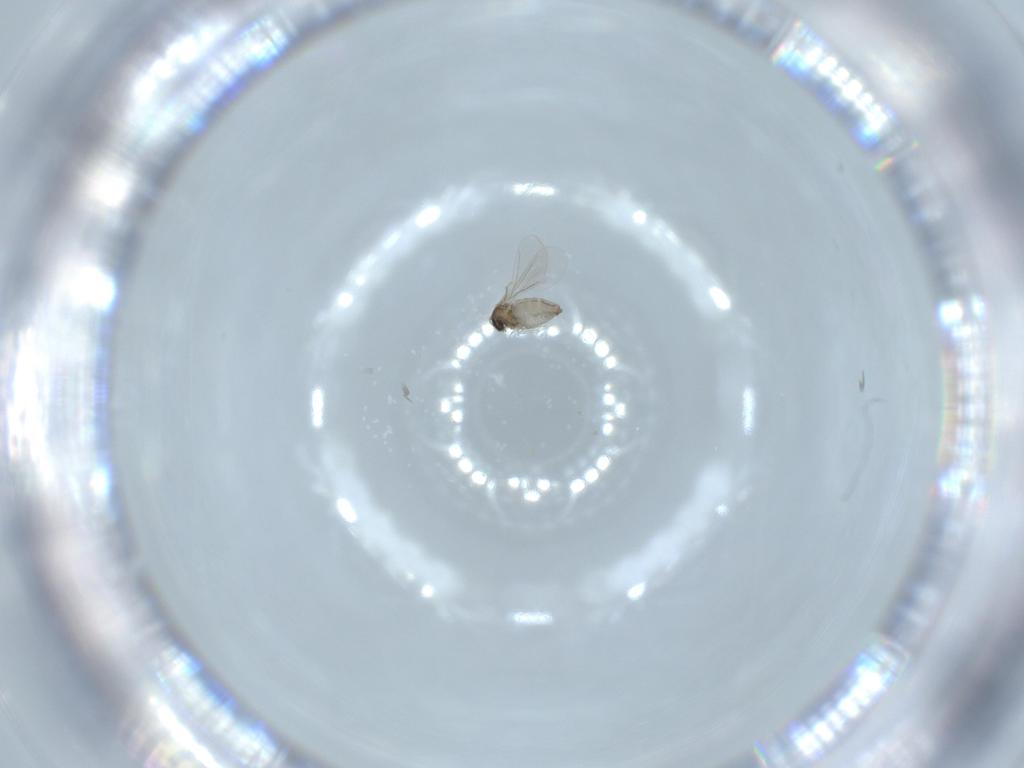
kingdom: Animalia
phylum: Arthropoda
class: Insecta
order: Diptera
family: Cecidomyiidae
